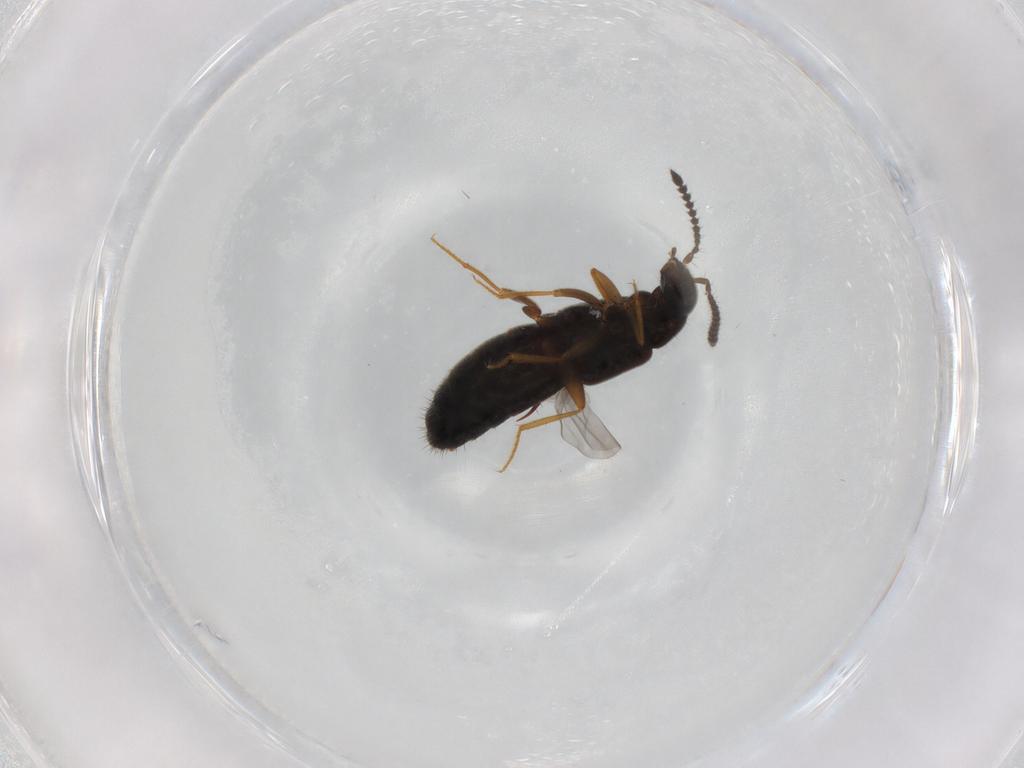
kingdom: Animalia
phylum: Arthropoda
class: Insecta
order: Coleoptera
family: Staphylinidae
